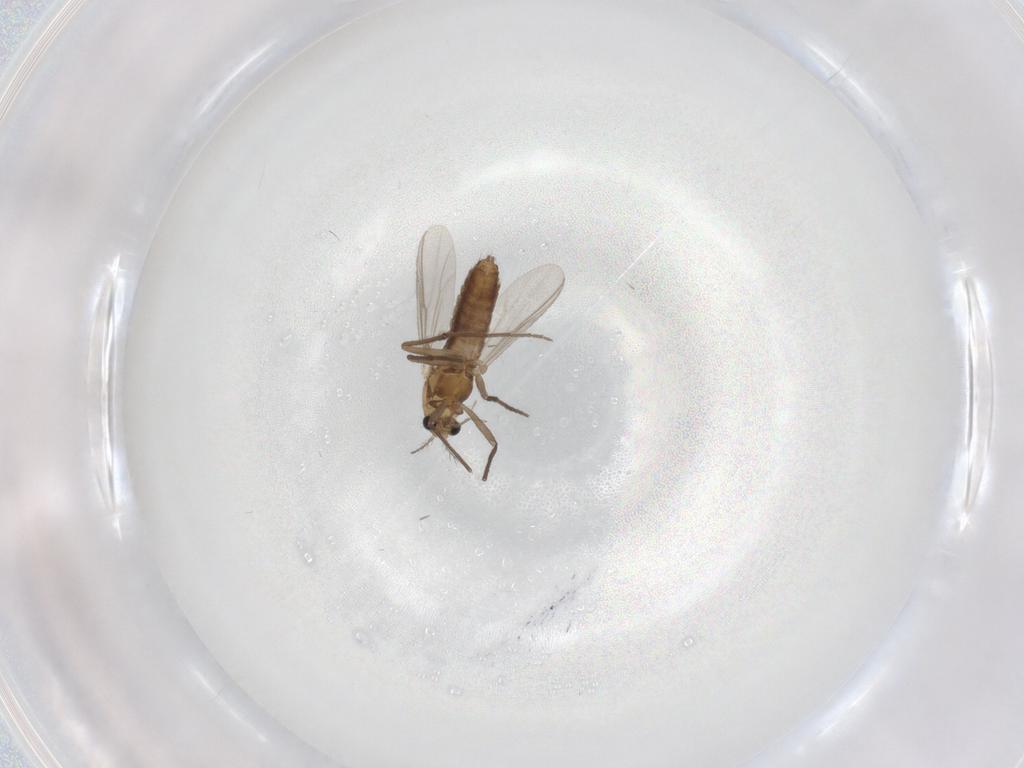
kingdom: Animalia
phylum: Arthropoda
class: Insecta
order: Diptera
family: Chironomidae
